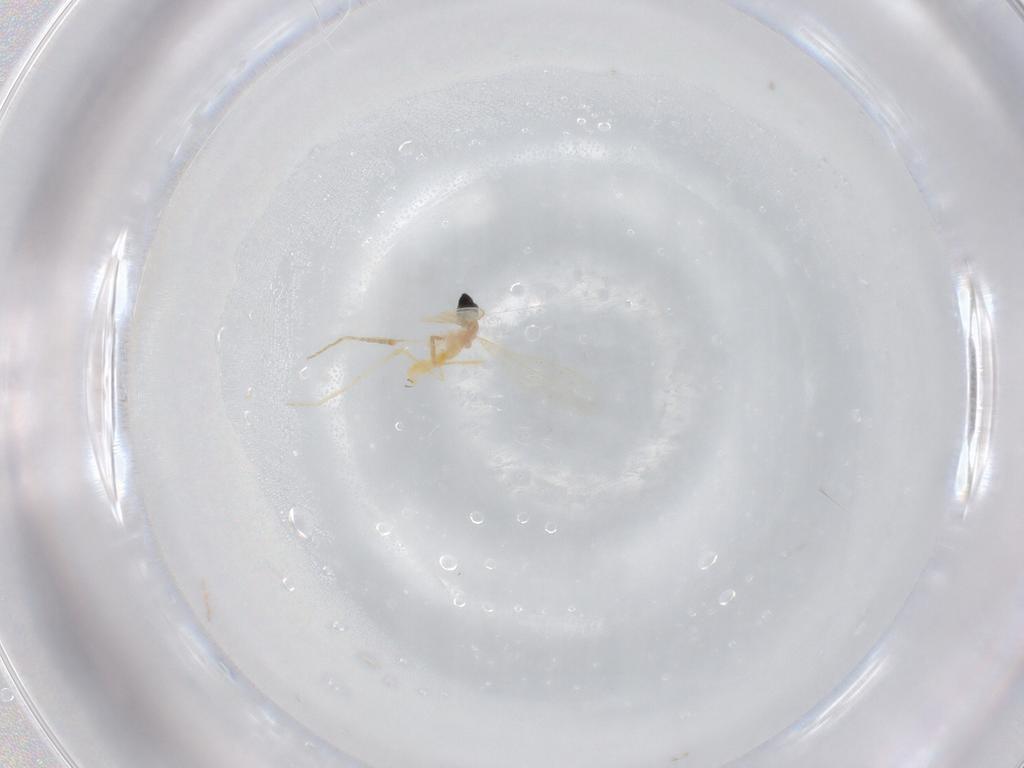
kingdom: Animalia
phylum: Arthropoda
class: Insecta
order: Diptera
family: Cecidomyiidae
